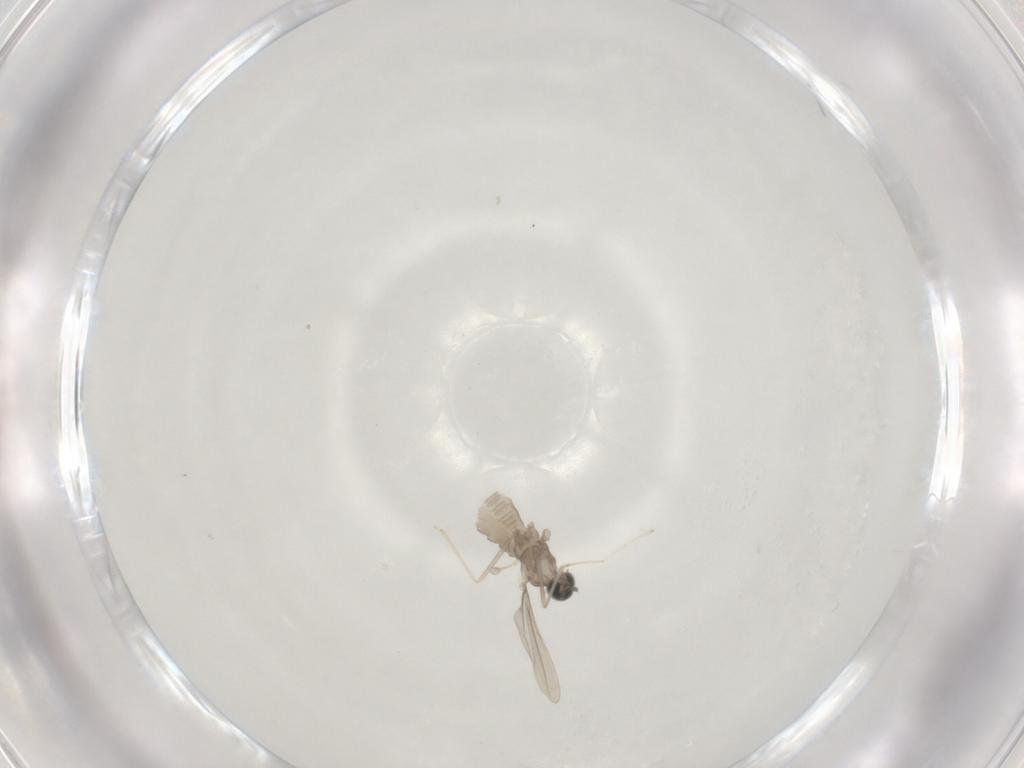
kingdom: Animalia
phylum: Arthropoda
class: Insecta
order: Diptera
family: Cecidomyiidae
